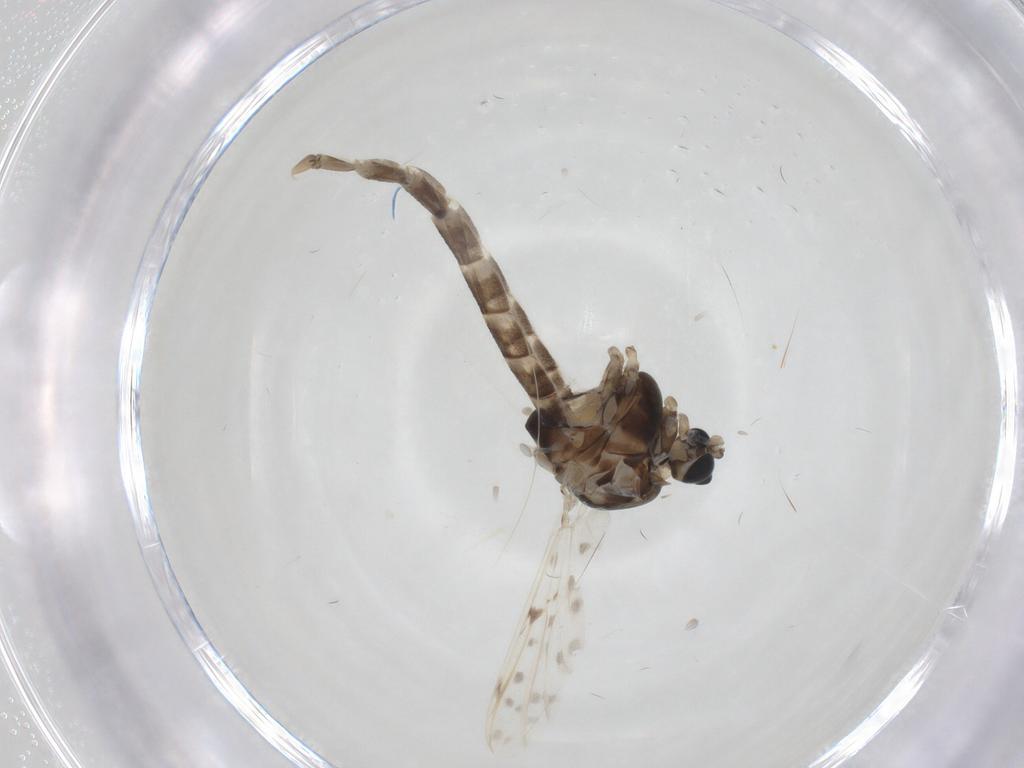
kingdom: Animalia
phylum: Arthropoda
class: Insecta
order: Diptera
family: Chironomidae
